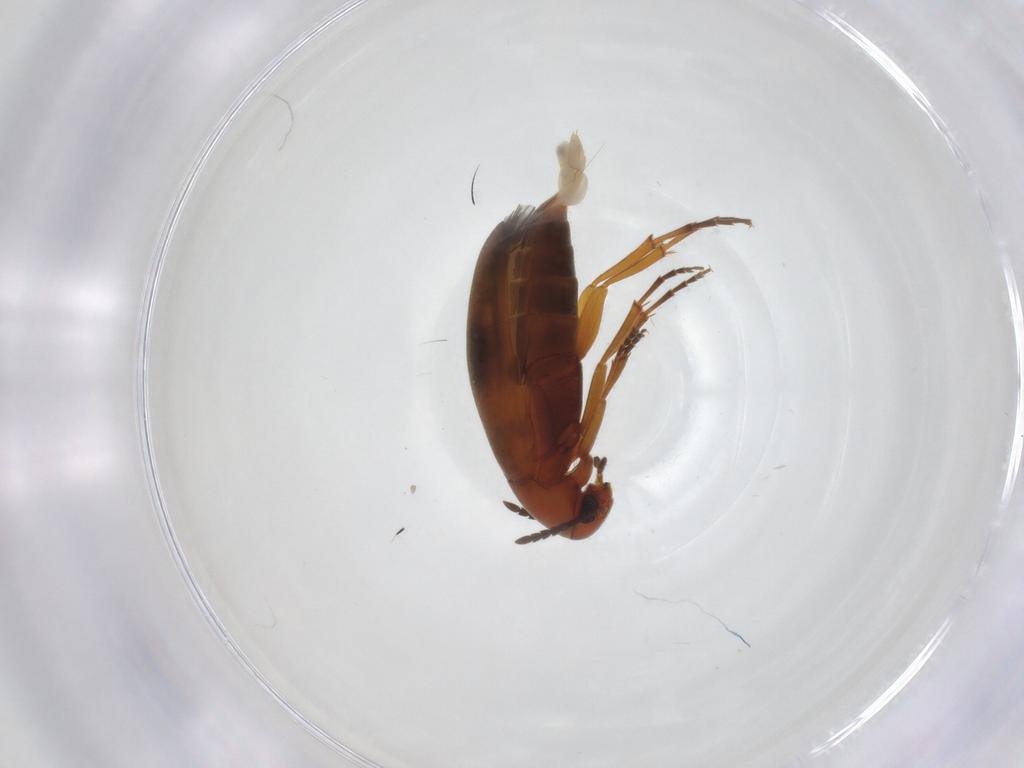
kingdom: Animalia
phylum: Arthropoda
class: Insecta
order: Coleoptera
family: Scraptiidae
